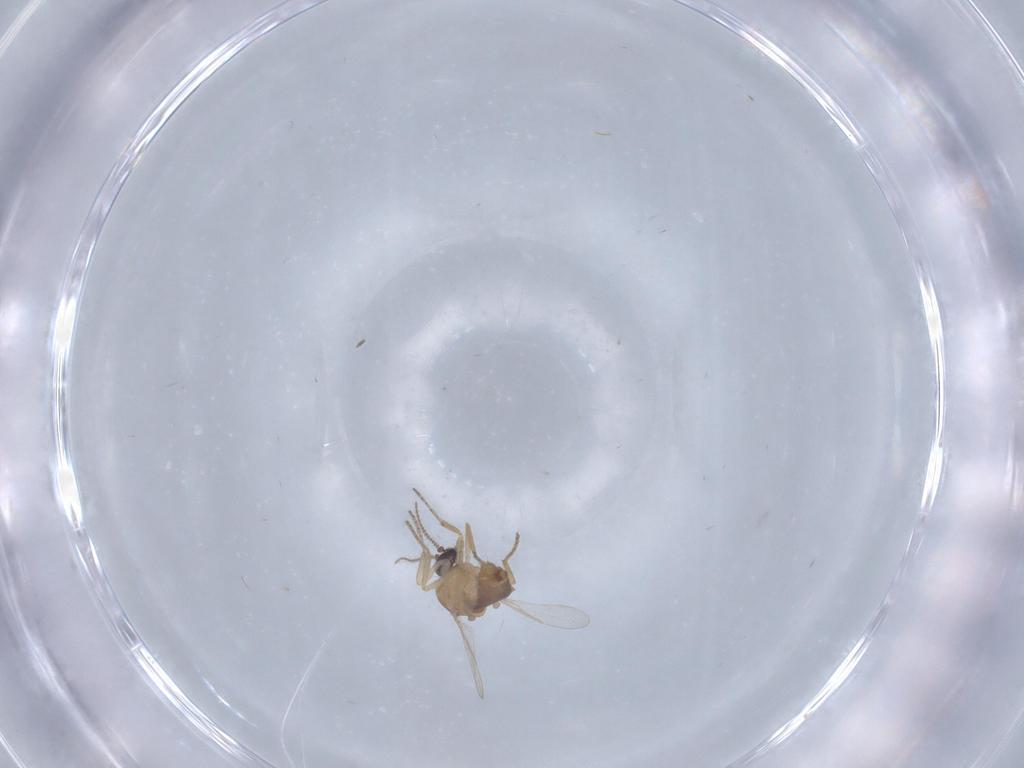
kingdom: Animalia
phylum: Arthropoda
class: Insecta
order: Diptera
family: Ceratopogonidae
